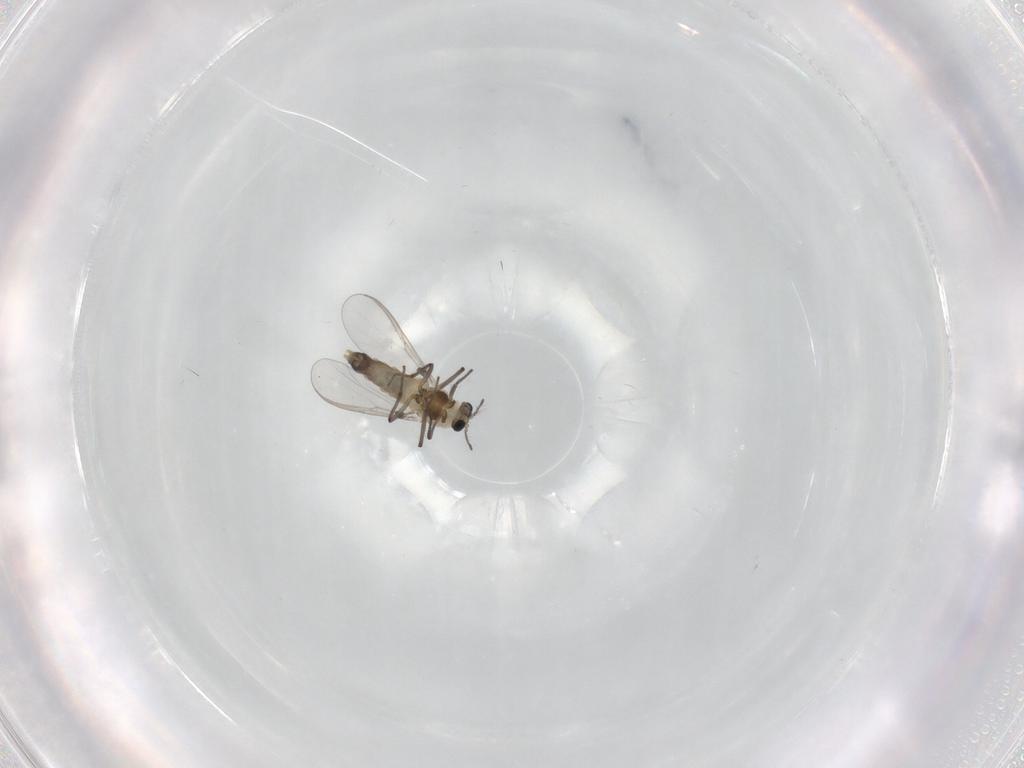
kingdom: Animalia
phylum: Arthropoda
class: Insecta
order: Diptera
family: Chironomidae
